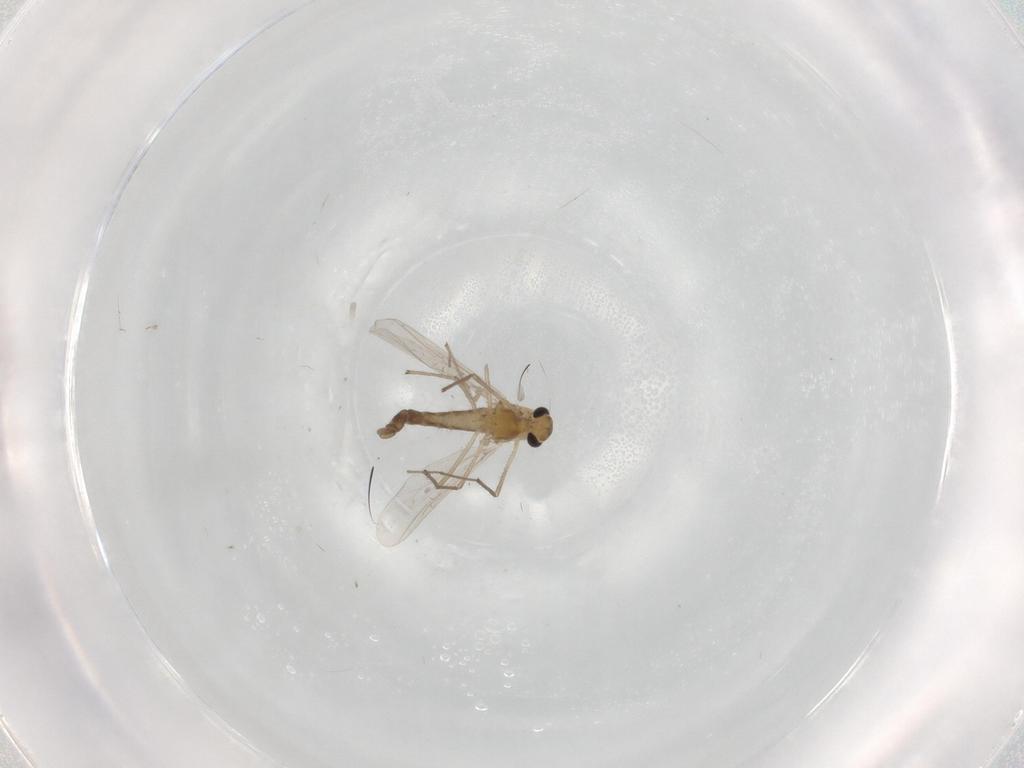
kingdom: Animalia
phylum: Arthropoda
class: Insecta
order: Diptera
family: Chironomidae
